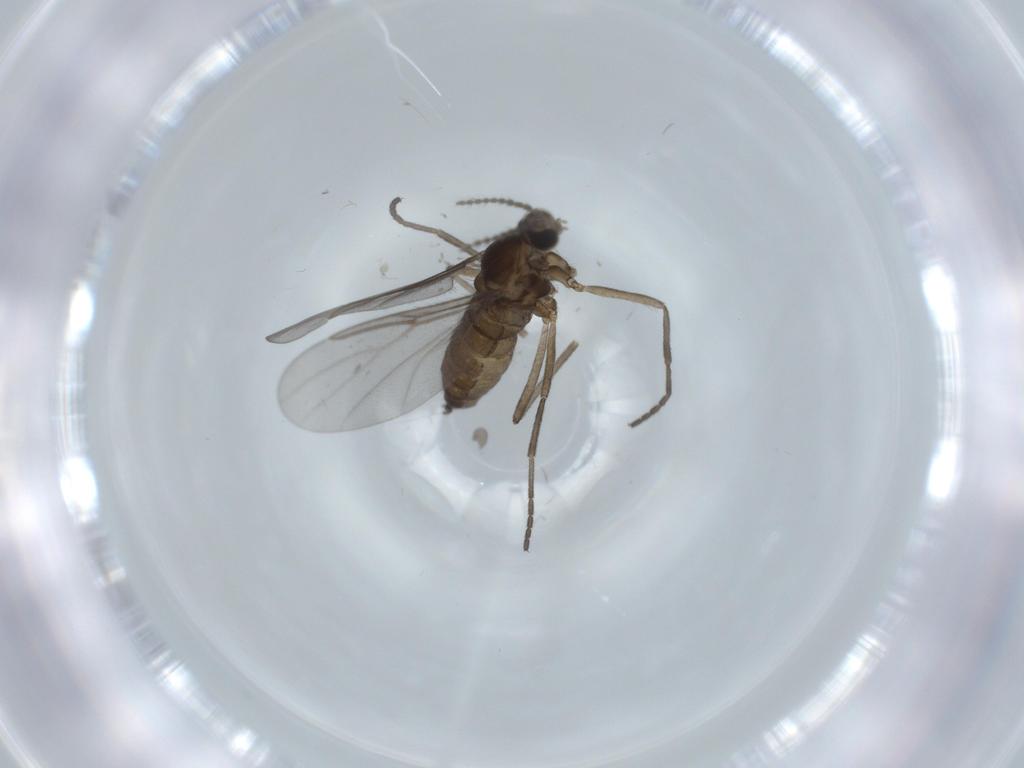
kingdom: Animalia
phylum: Arthropoda
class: Insecta
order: Diptera
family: Cecidomyiidae
